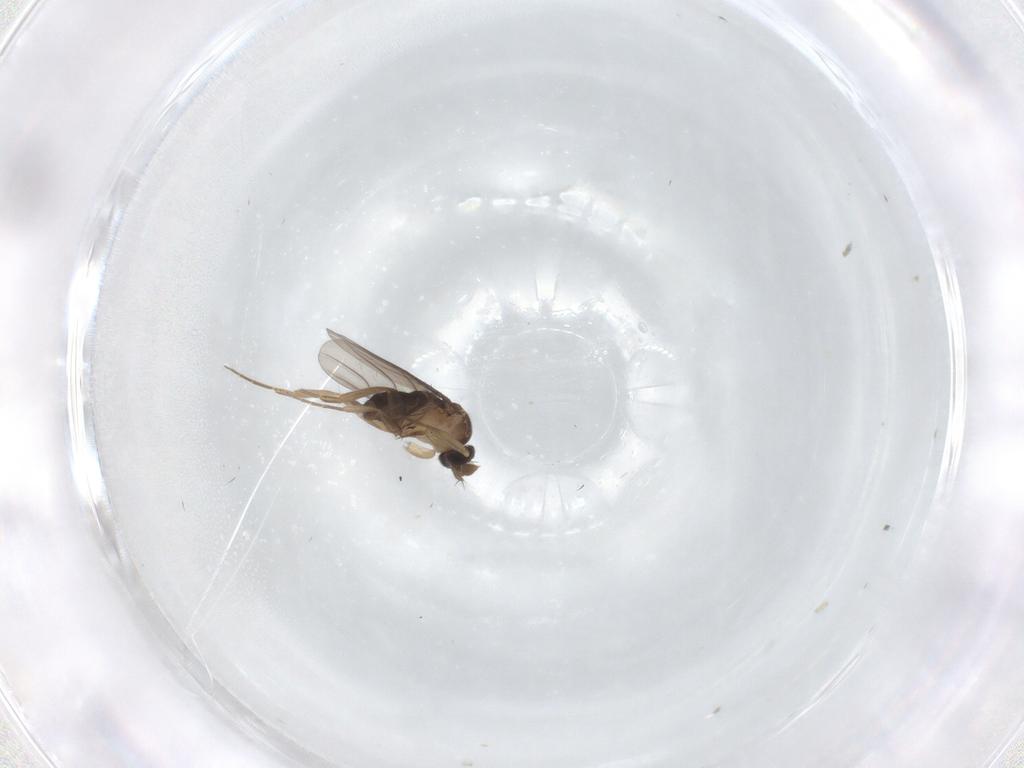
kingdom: Animalia
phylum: Arthropoda
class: Insecta
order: Diptera
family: Phoridae
